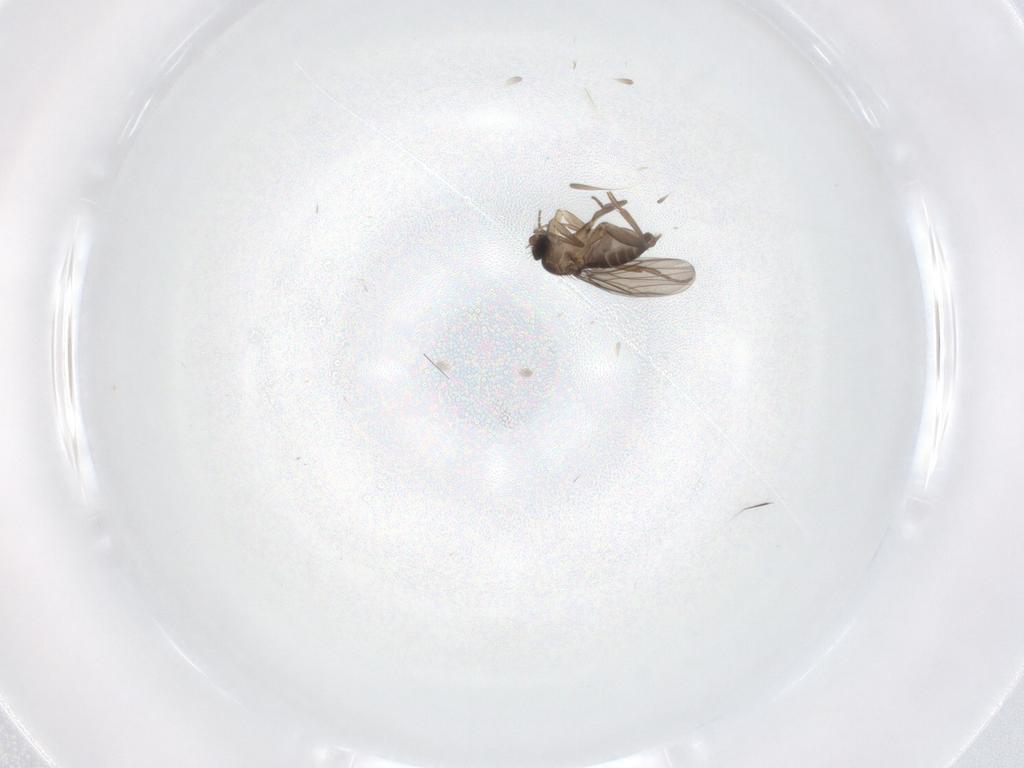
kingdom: Animalia
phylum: Arthropoda
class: Insecta
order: Diptera
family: Phoridae
